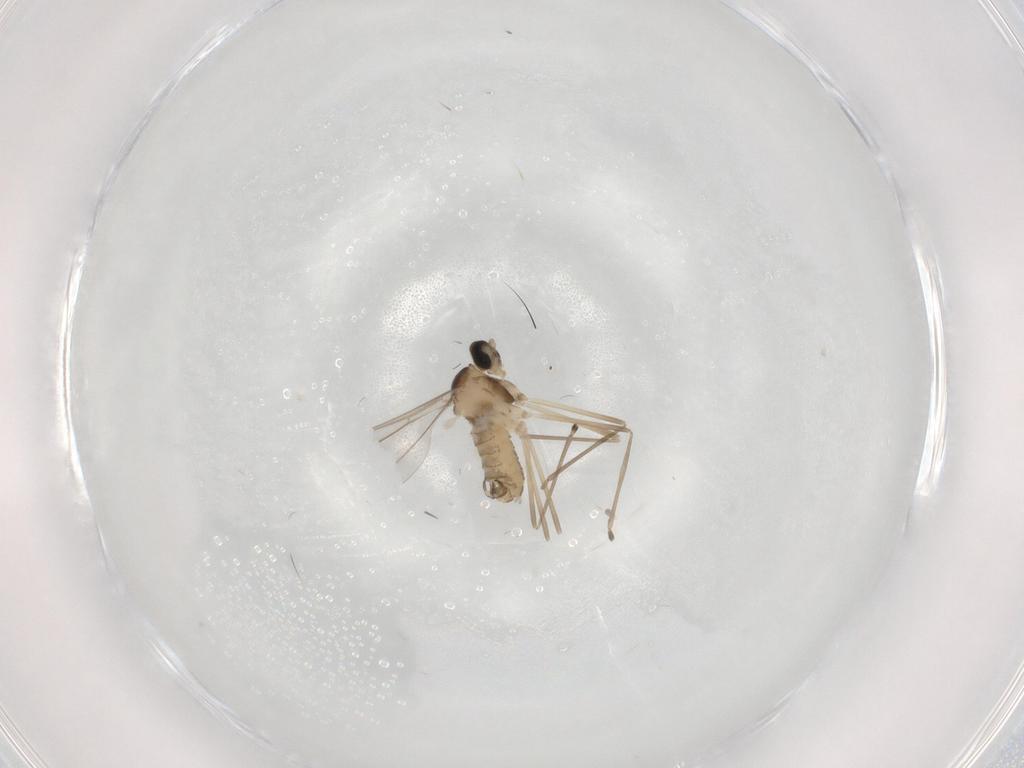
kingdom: Animalia
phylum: Arthropoda
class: Insecta
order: Diptera
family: Cecidomyiidae
